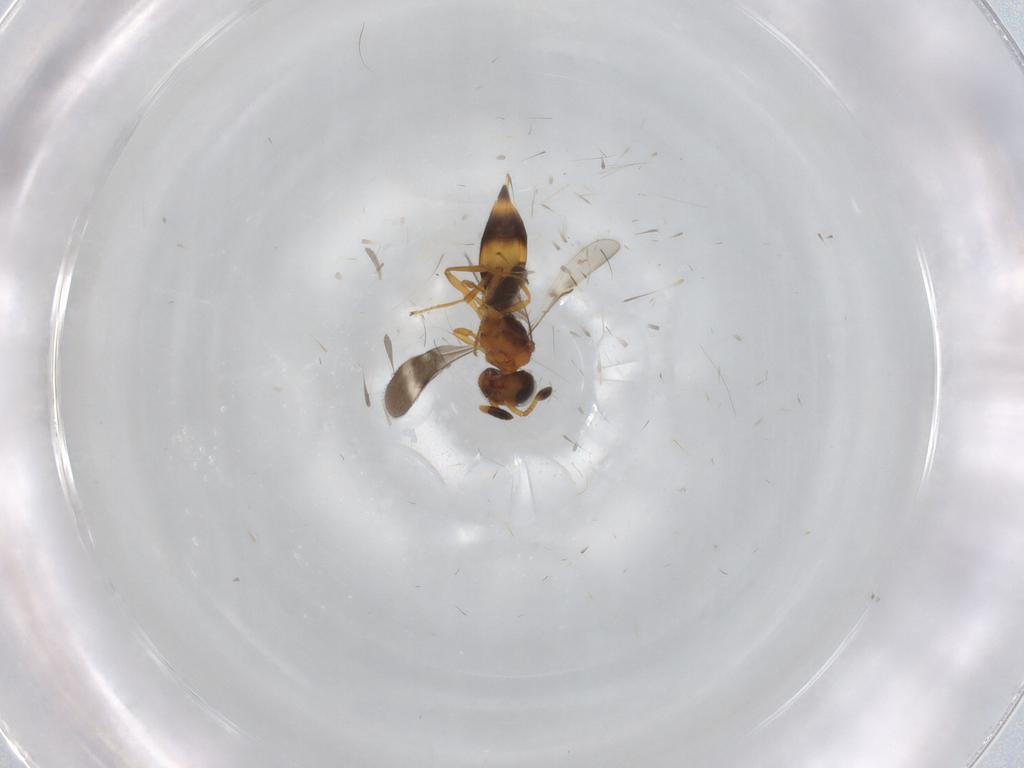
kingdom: Animalia
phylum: Arthropoda
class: Insecta
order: Hymenoptera
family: Scelionidae
